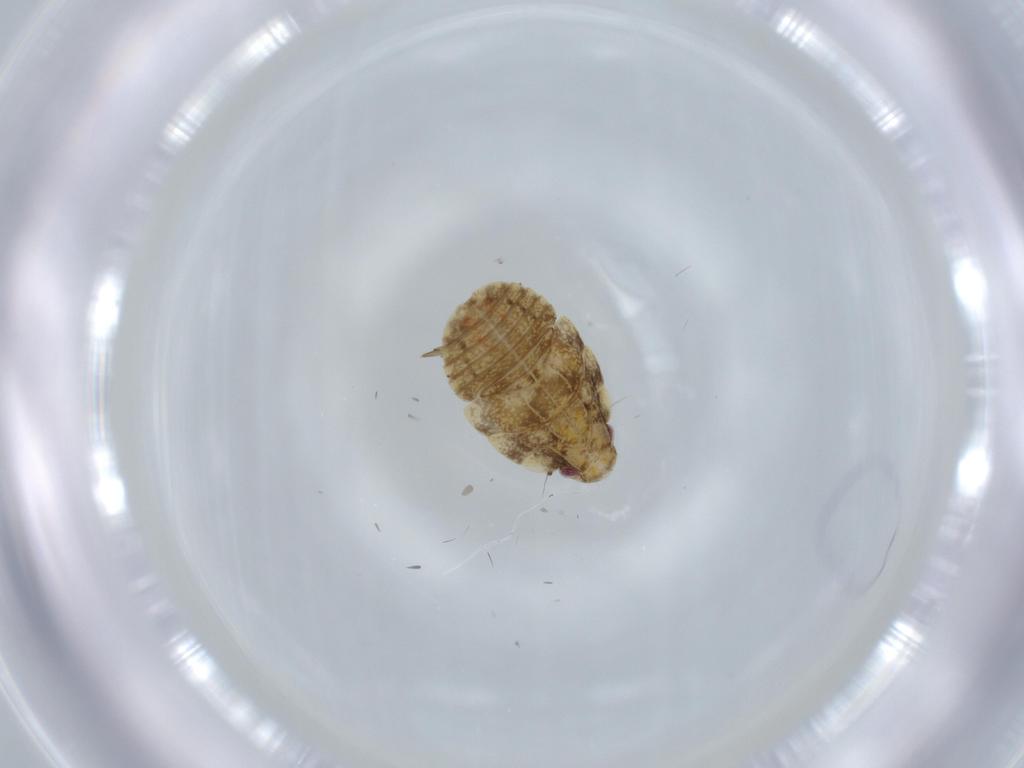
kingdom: Animalia
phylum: Arthropoda
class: Insecta
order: Hemiptera
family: Flatidae
